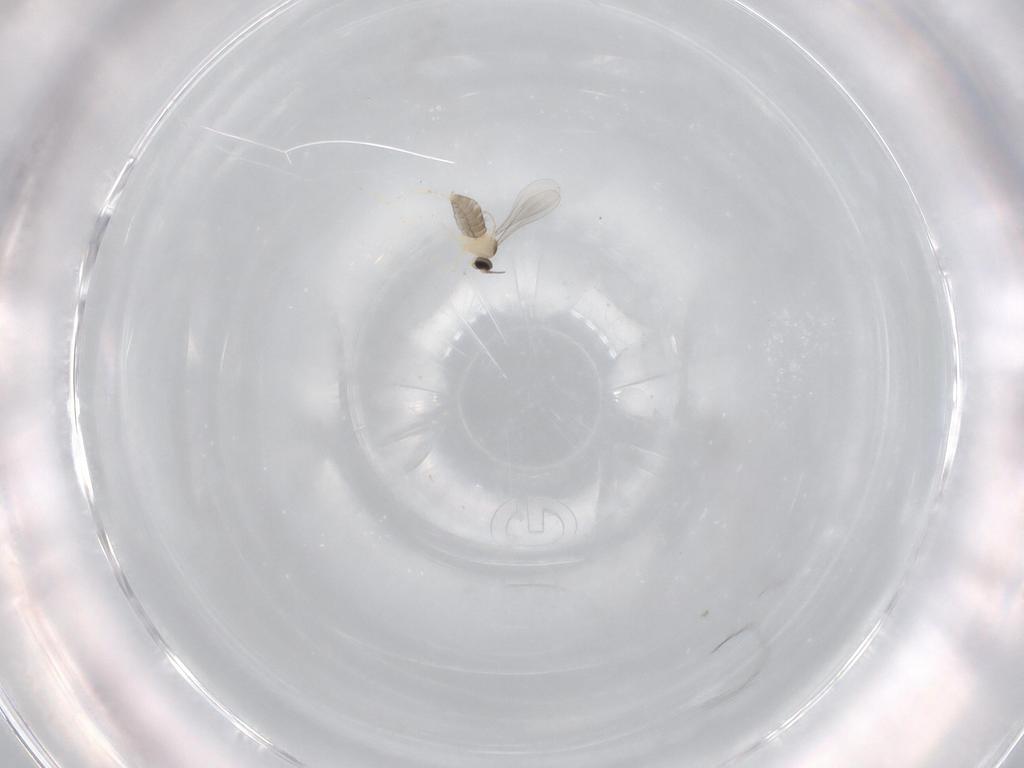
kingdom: Animalia
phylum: Arthropoda
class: Insecta
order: Diptera
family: Cecidomyiidae
